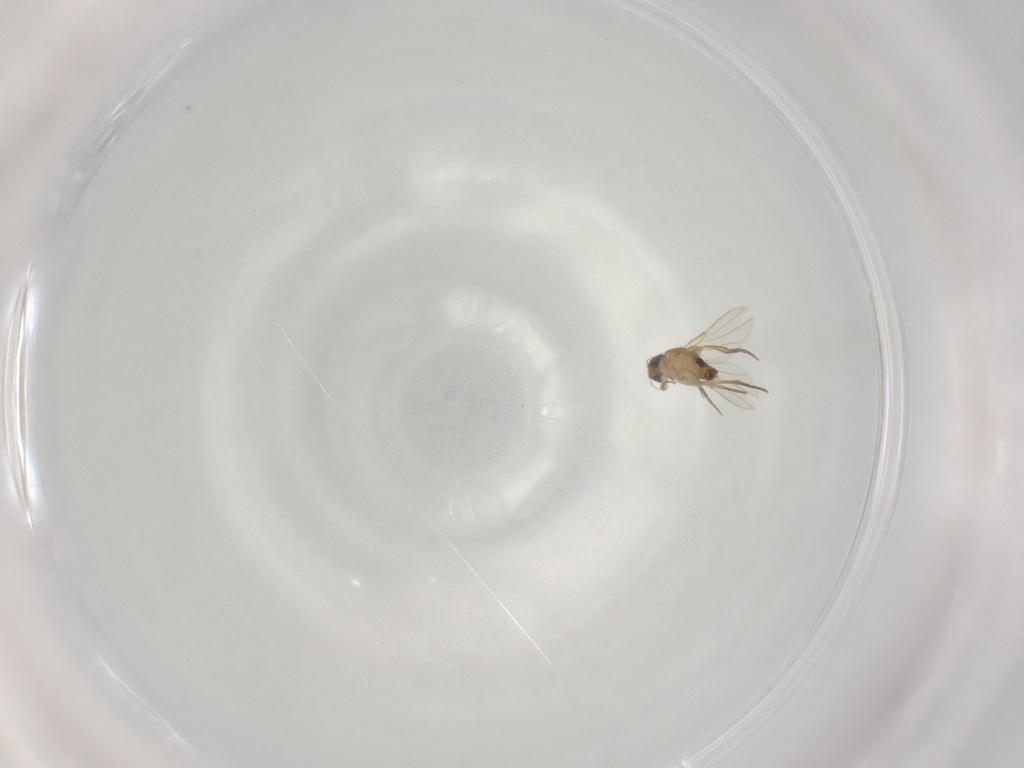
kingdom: Animalia
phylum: Arthropoda
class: Insecta
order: Diptera
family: Phoridae
